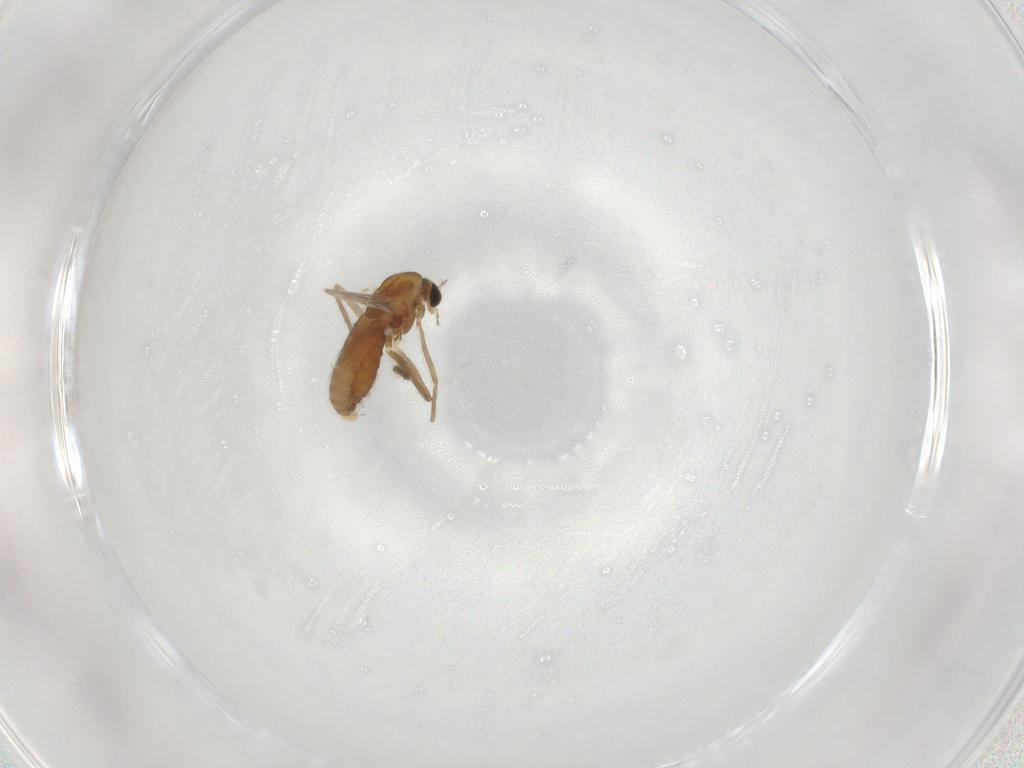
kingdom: Animalia
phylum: Arthropoda
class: Insecta
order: Diptera
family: Chironomidae
